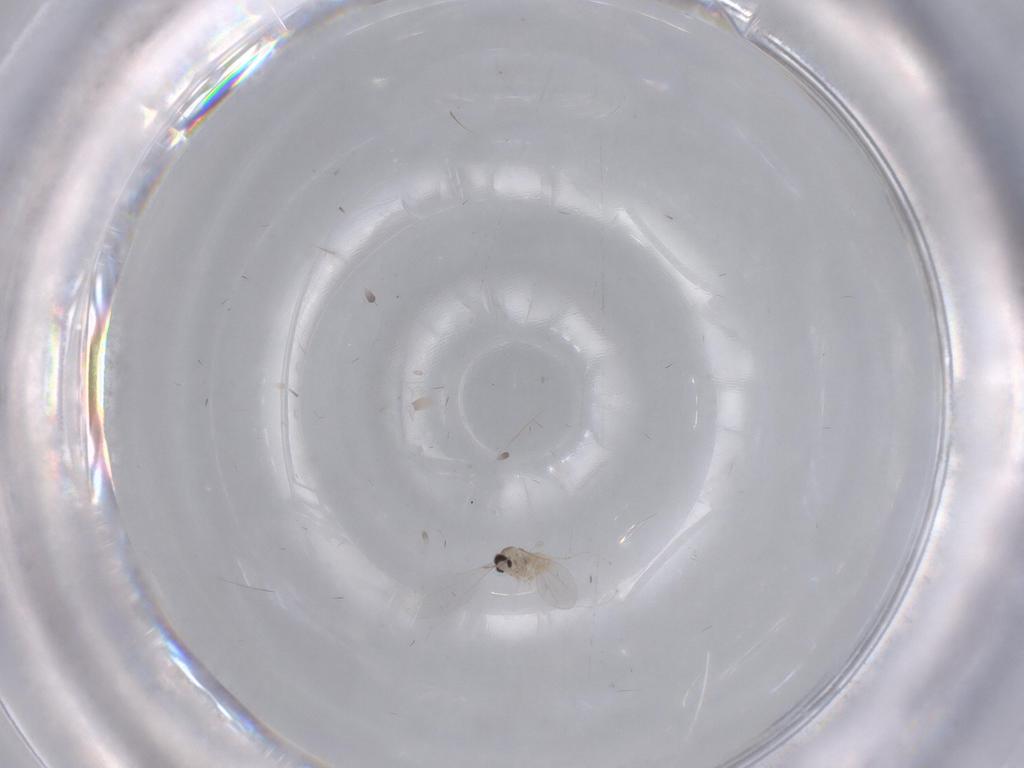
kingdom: Animalia
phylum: Arthropoda
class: Insecta
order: Diptera
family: Cecidomyiidae
